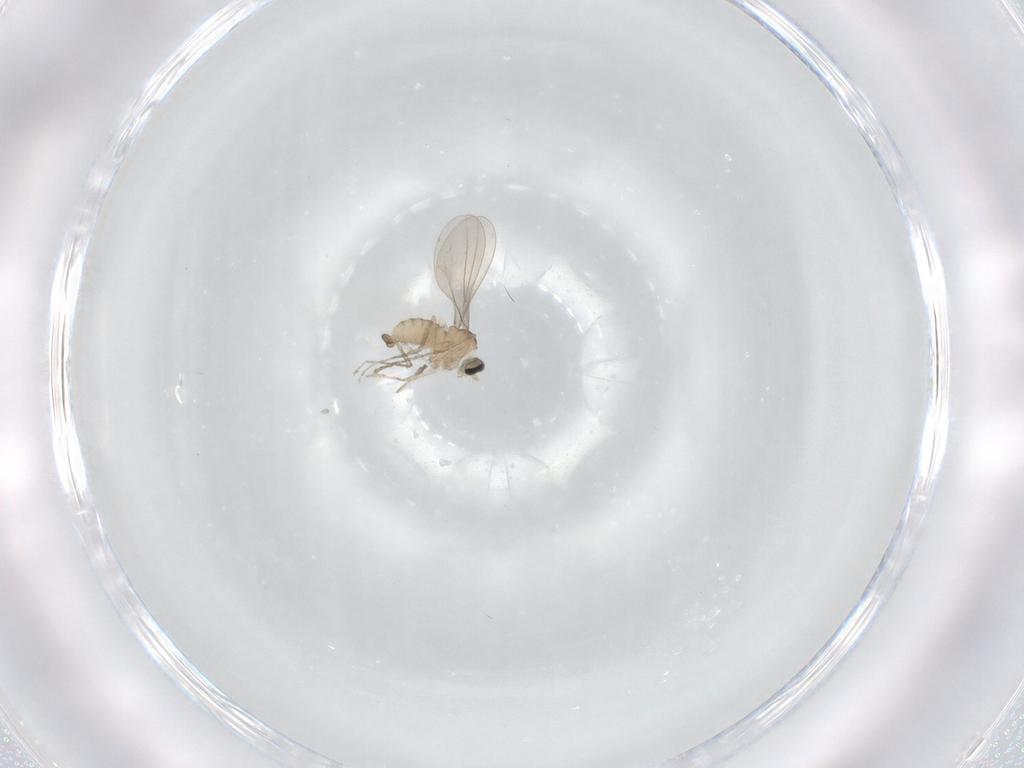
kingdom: Animalia
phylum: Arthropoda
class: Insecta
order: Diptera
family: Cecidomyiidae
